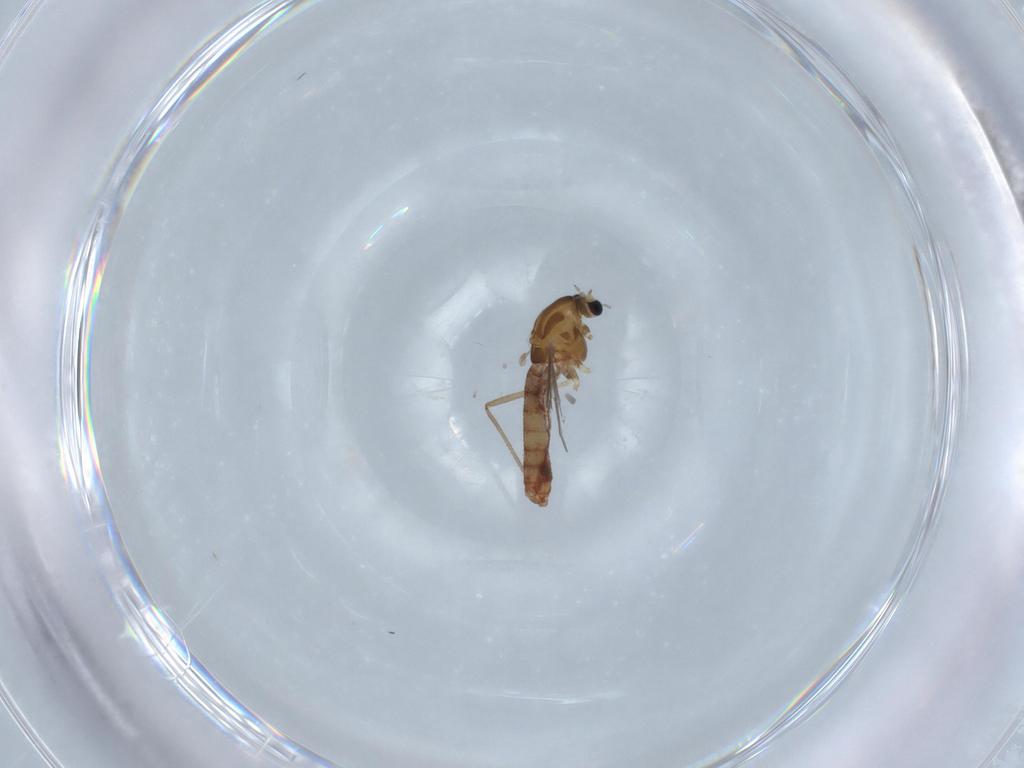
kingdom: Animalia
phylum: Arthropoda
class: Insecta
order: Diptera
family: Chironomidae
